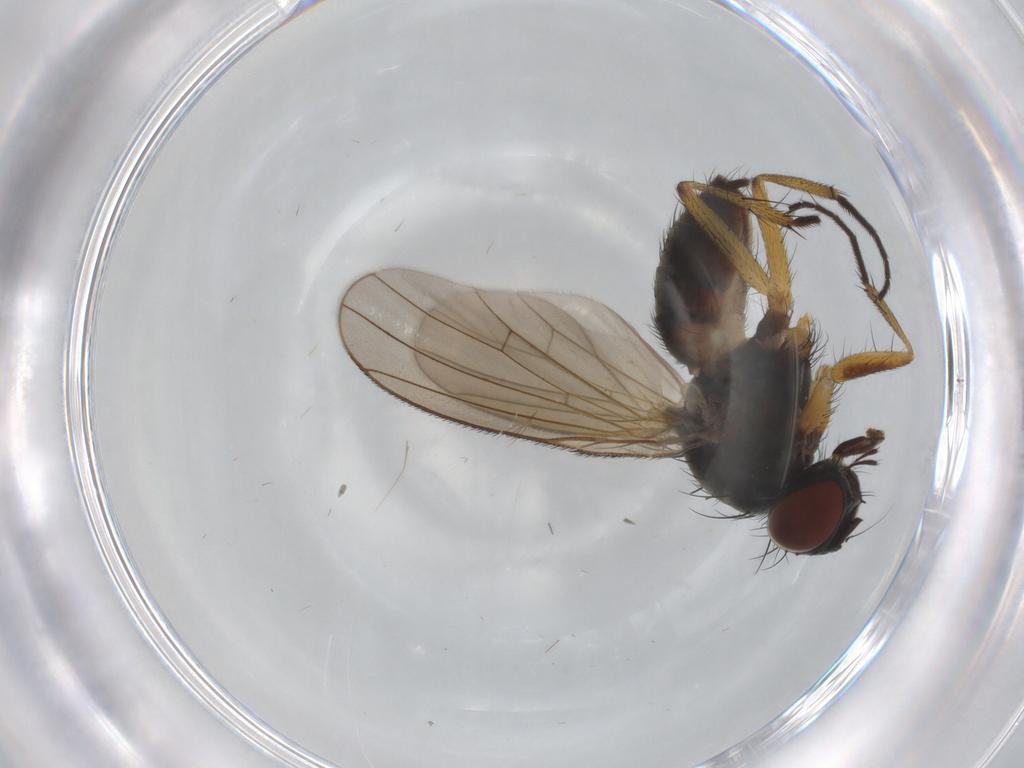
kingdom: Animalia
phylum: Arthropoda
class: Insecta
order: Diptera
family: Muscidae
